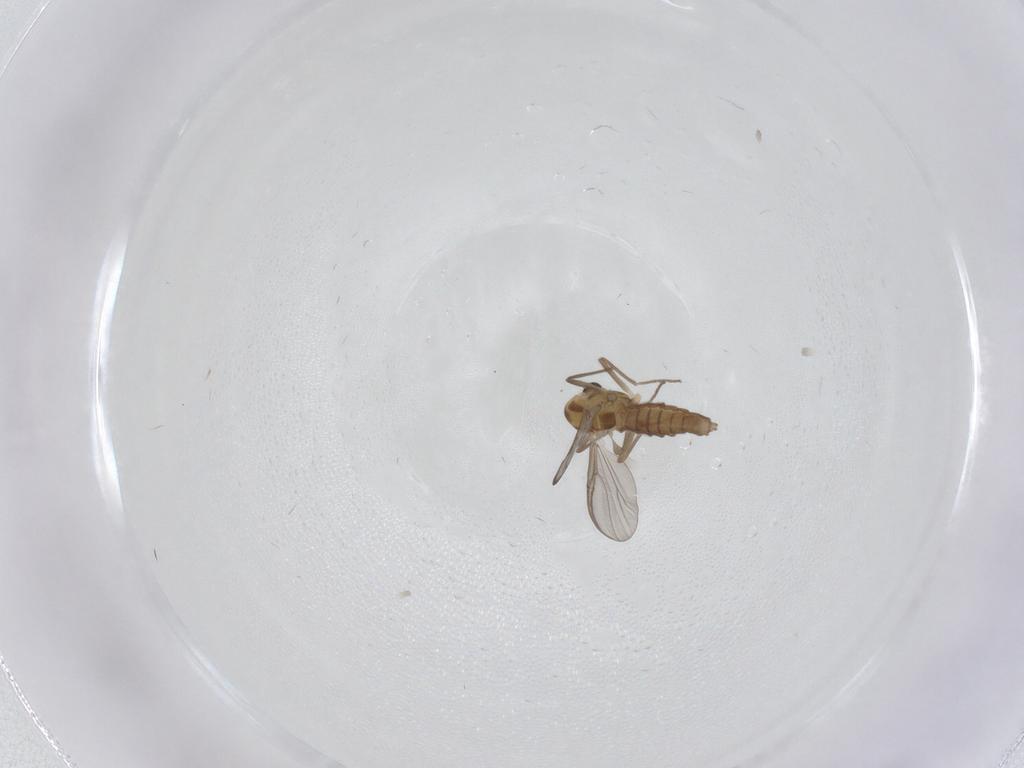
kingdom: Animalia
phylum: Arthropoda
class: Insecta
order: Diptera
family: Chironomidae
